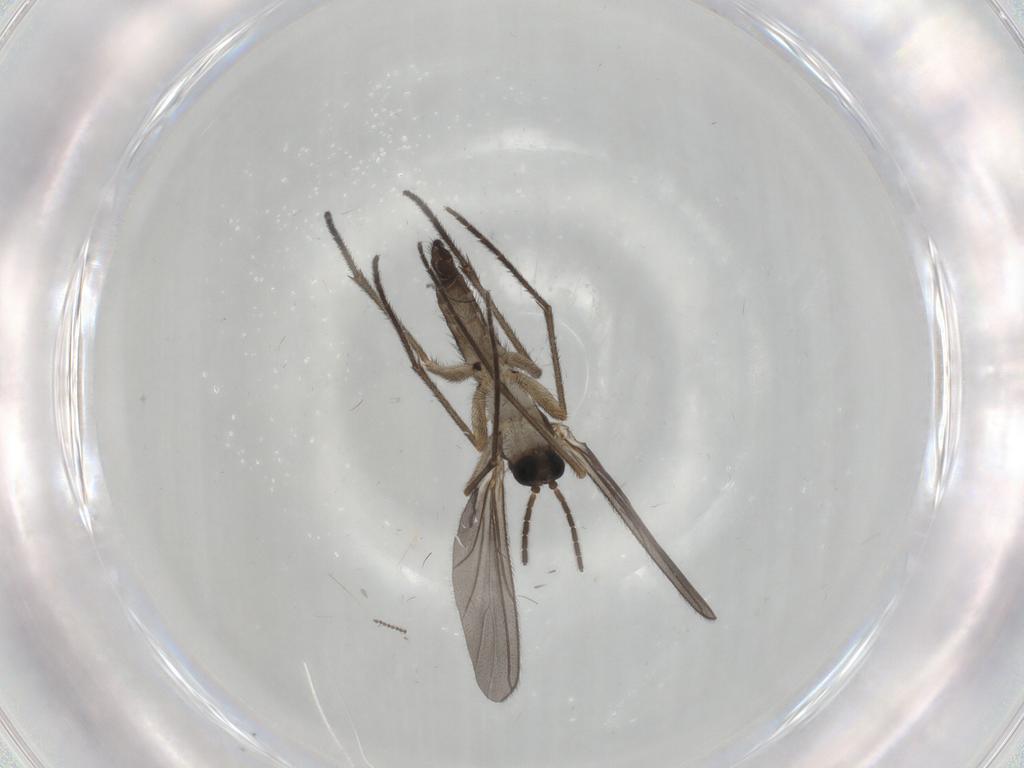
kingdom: Animalia
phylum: Arthropoda
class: Insecta
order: Diptera
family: Sciaridae
